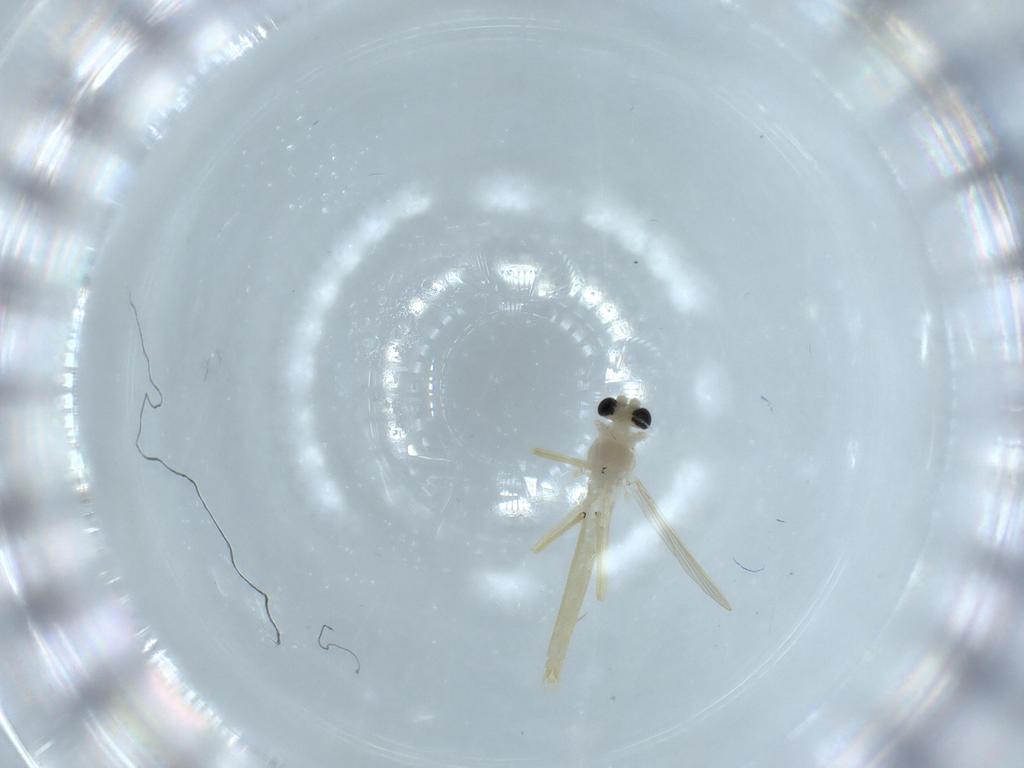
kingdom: Animalia
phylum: Arthropoda
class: Insecta
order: Diptera
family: Chironomidae
